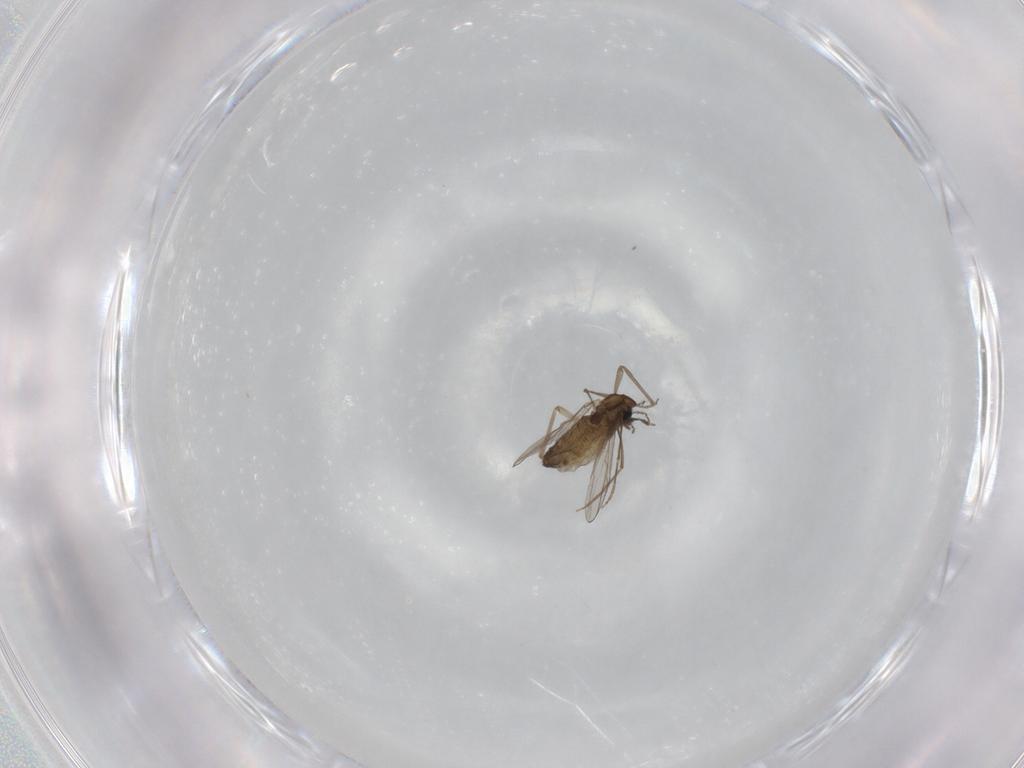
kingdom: Animalia
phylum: Arthropoda
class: Insecta
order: Diptera
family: Chironomidae
